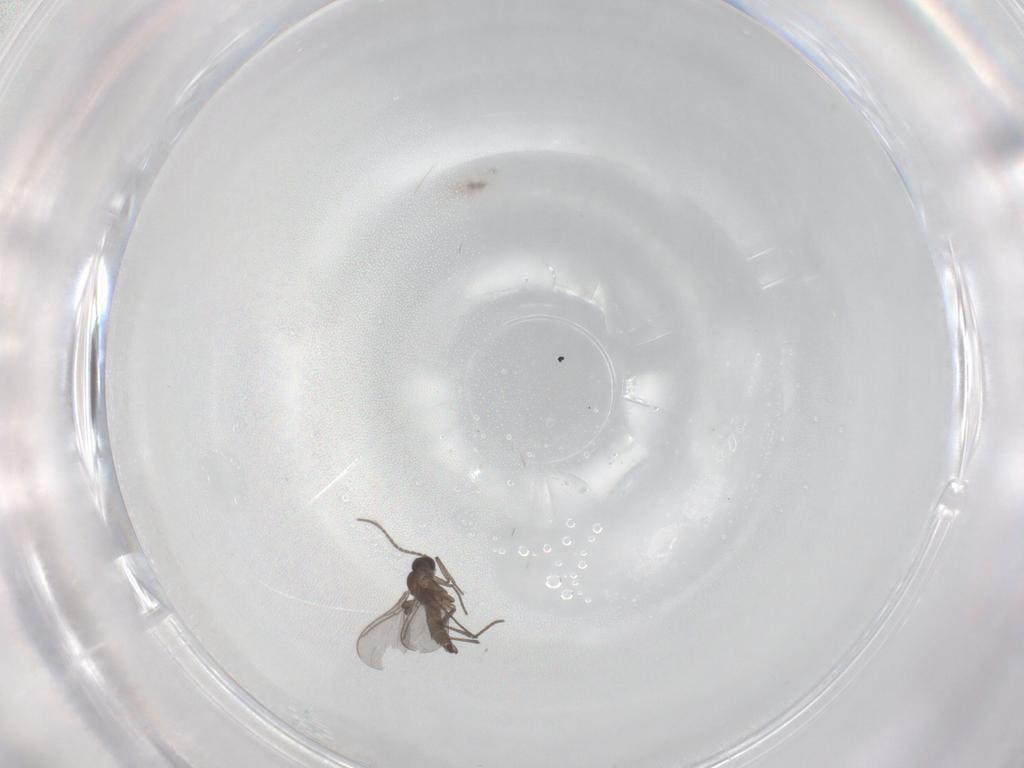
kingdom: Animalia
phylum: Arthropoda
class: Insecta
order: Diptera
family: Sciaridae
